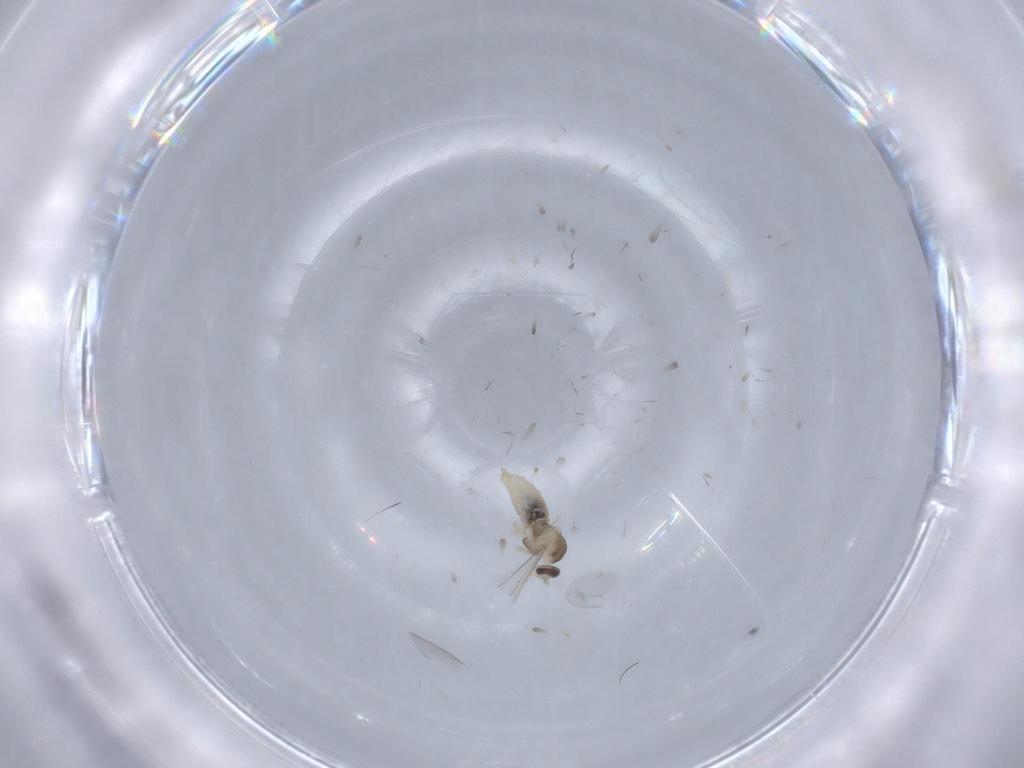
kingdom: Animalia
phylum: Arthropoda
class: Insecta
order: Diptera
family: Cecidomyiidae
